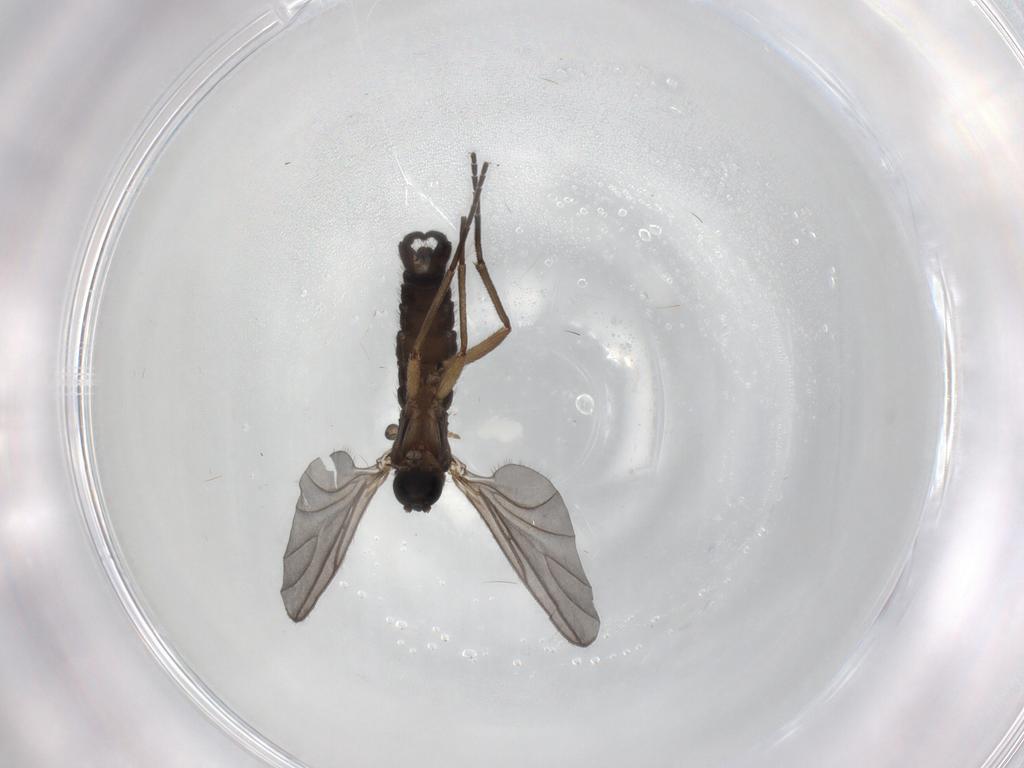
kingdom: Animalia
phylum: Arthropoda
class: Insecta
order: Diptera
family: Sciaridae
